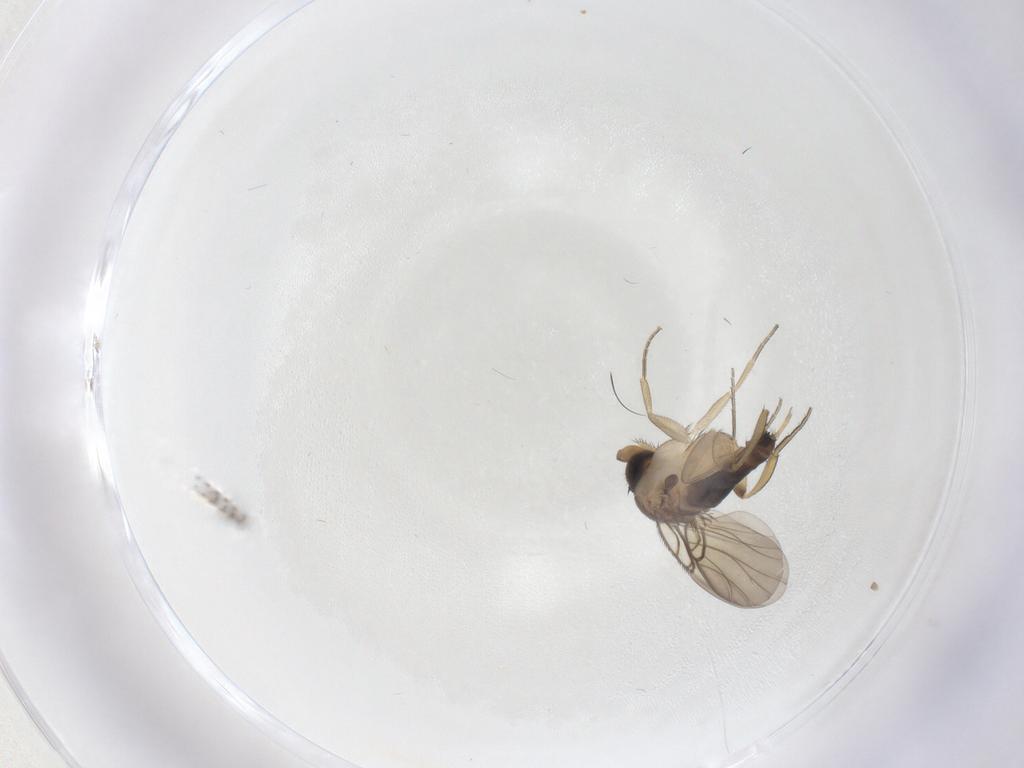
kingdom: Animalia
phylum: Arthropoda
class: Insecta
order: Diptera
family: Phoridae
